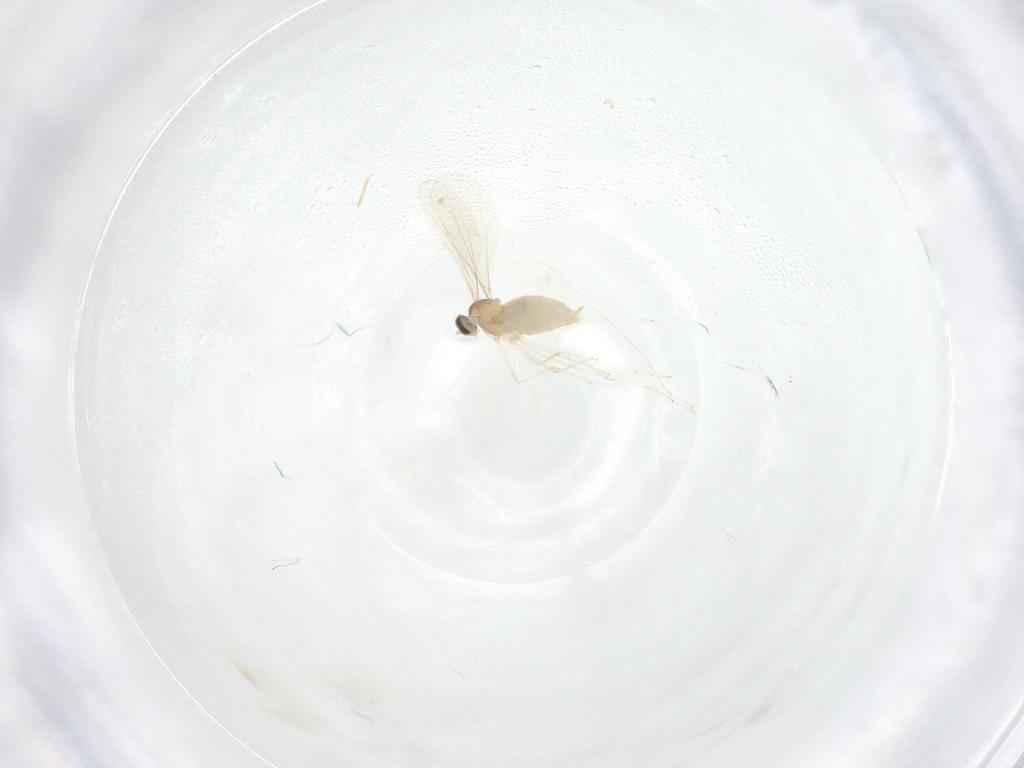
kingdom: Animalia
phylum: Arthropoda
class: Insecta
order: Diptera
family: Cecidomyiidae
